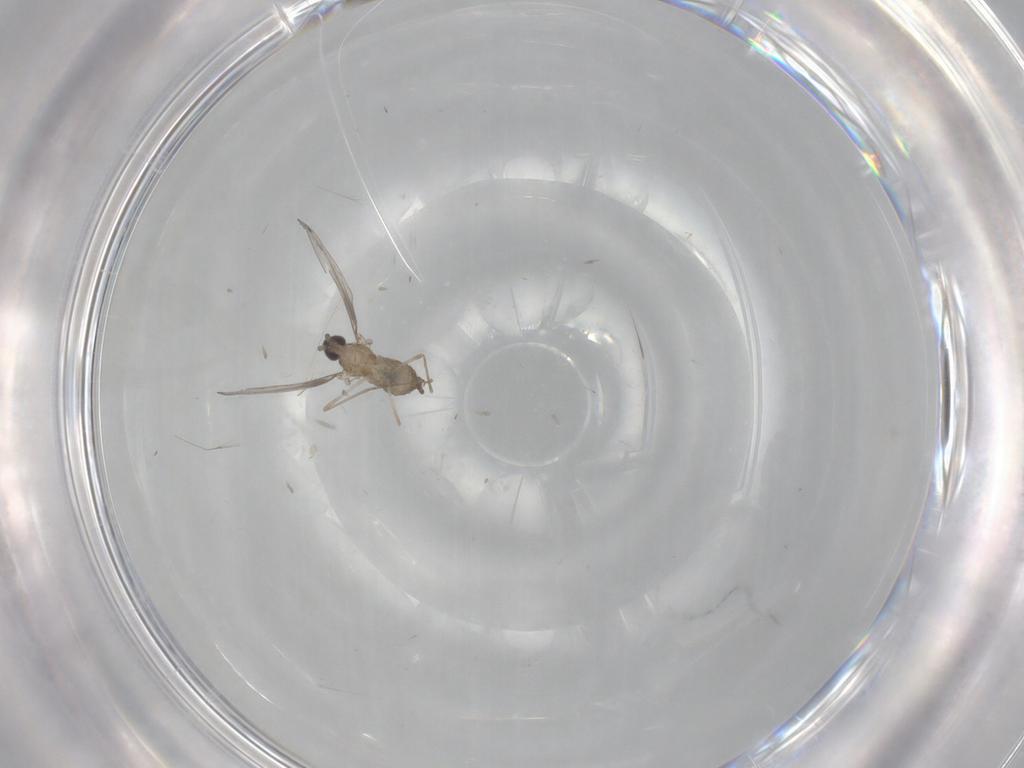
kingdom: Animalia
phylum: Arthropoda
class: Insecta
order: Diptera
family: Cecidomyiidae
